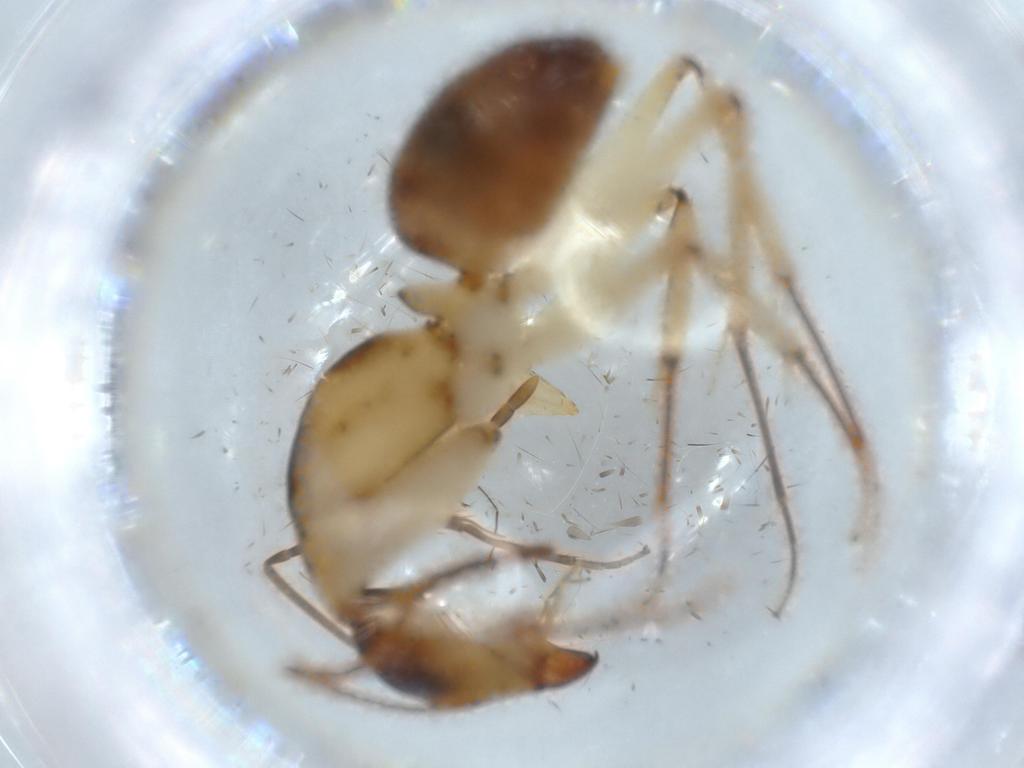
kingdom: Animalia
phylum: Arthropoda
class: Insecta
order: Hymenoptera
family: Formicidae
